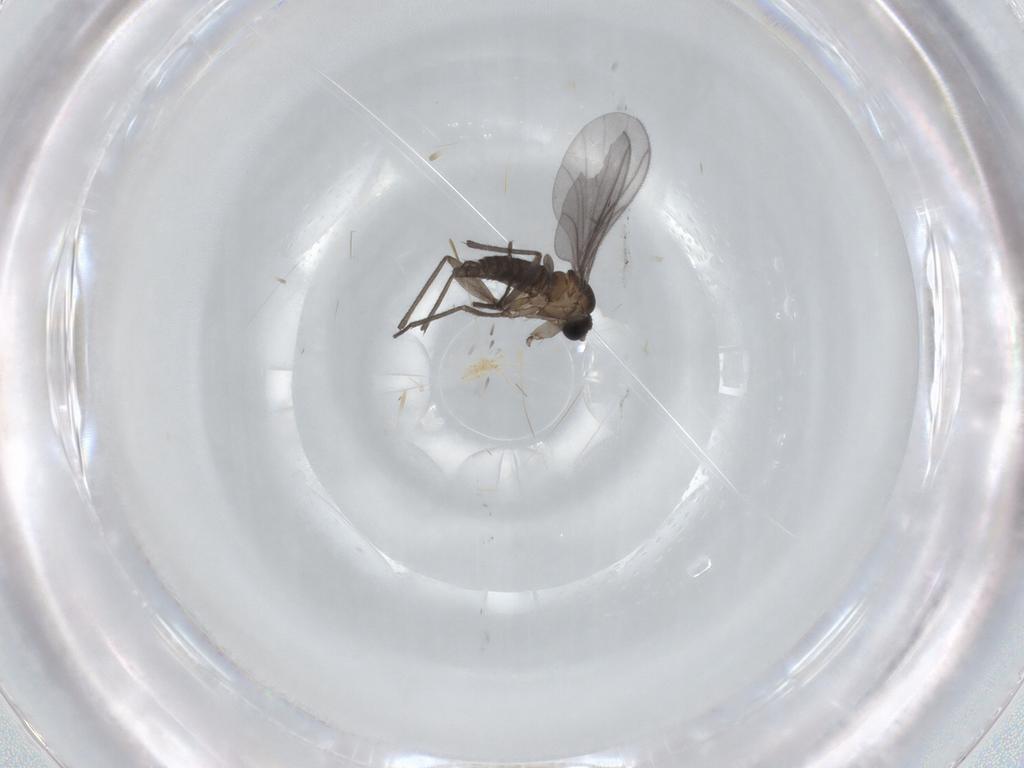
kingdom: Animalia
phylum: Arthropoda
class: Insecta
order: Diptera
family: Sciaridae
